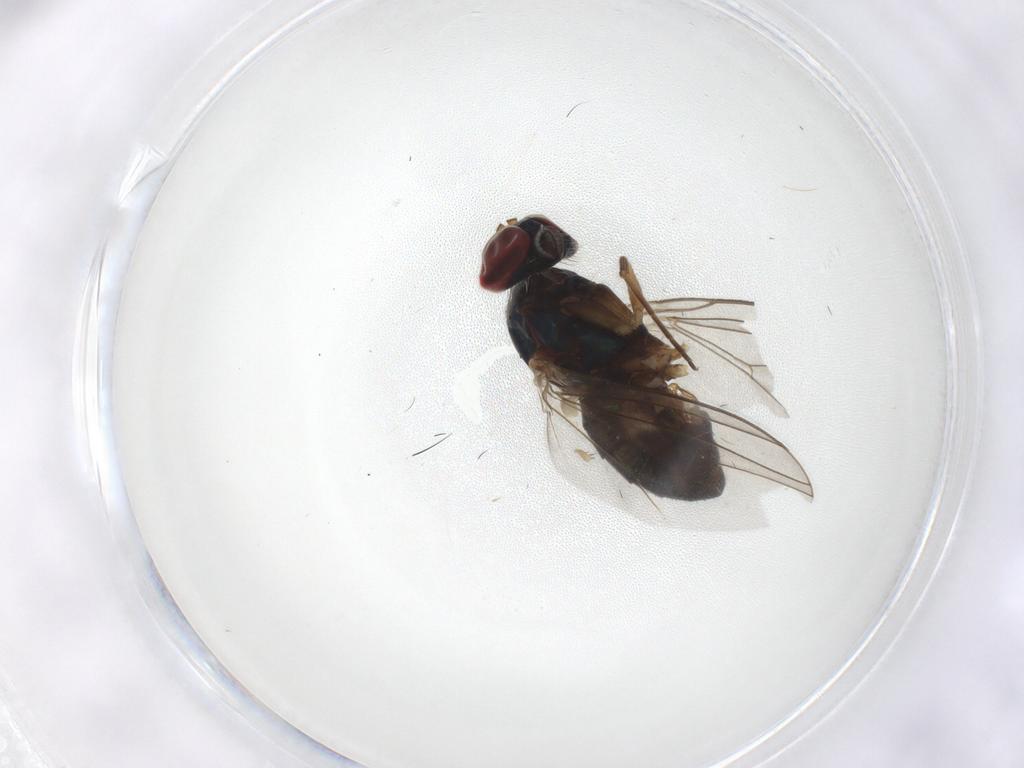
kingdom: Animalia
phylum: Arthropoda
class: Insecta
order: Diptera
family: Dolichopodidae
